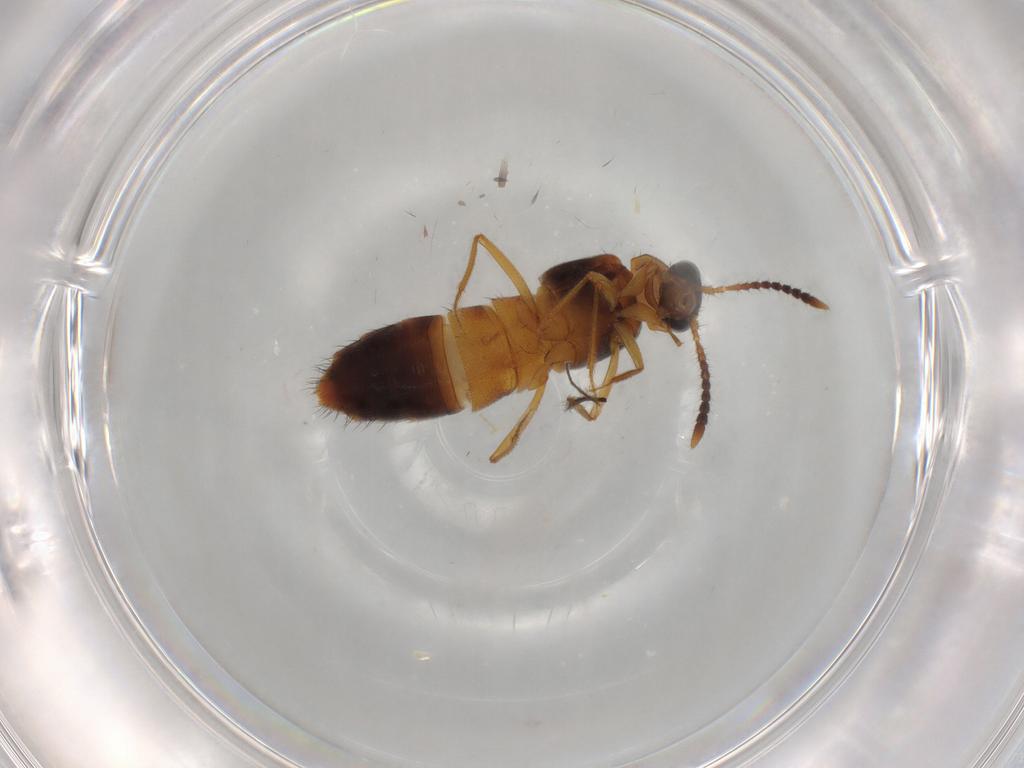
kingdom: Animalia
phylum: Arthropoda
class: Insecta
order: Coleoptera
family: Staphylinidae
